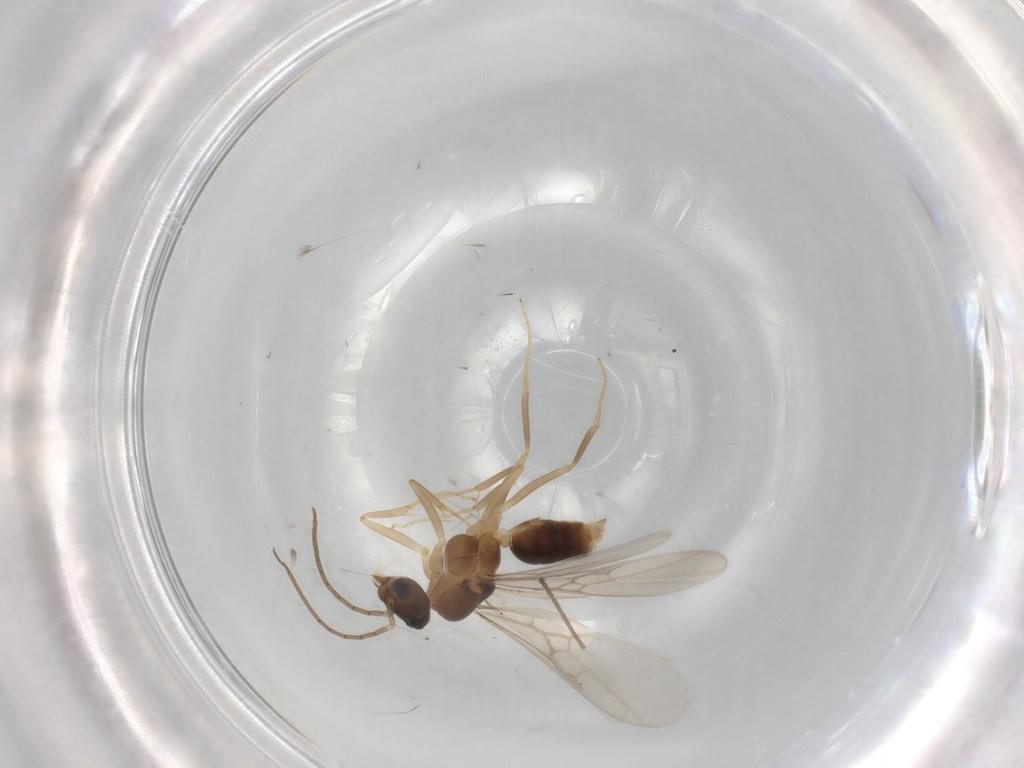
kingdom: Animalia
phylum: Arthropoda
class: Insecta
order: Hymenoptera
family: Formicidae
